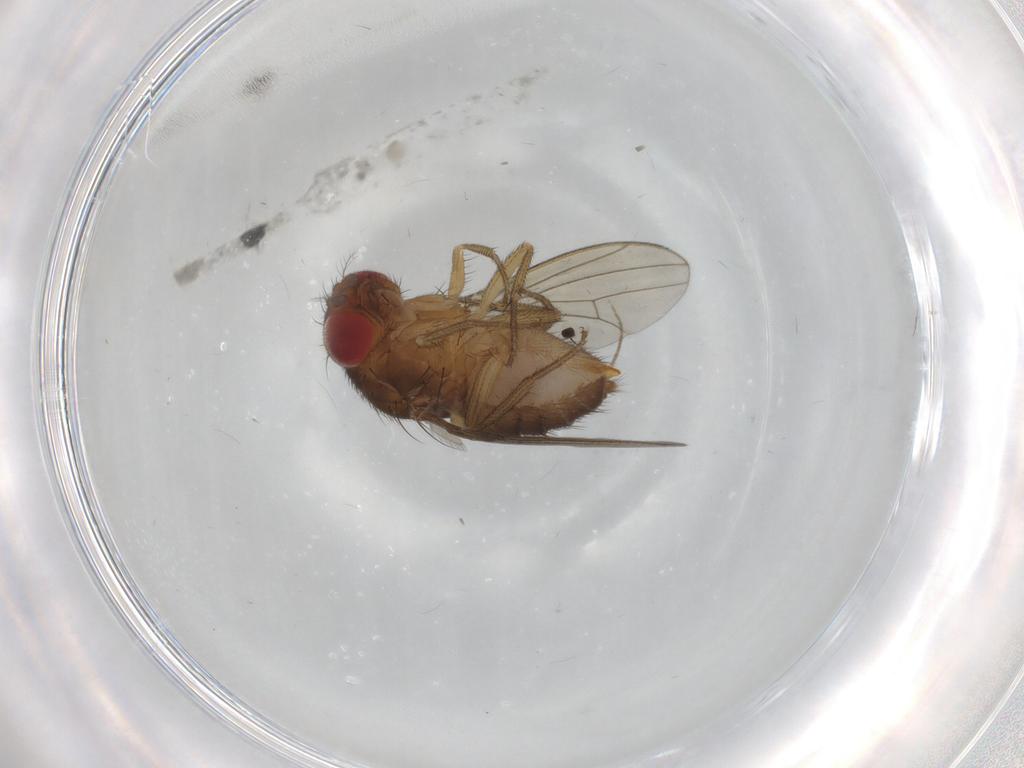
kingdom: Animalia
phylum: Arthropoda
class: Insecta
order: Diptera
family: Drosophilidae
